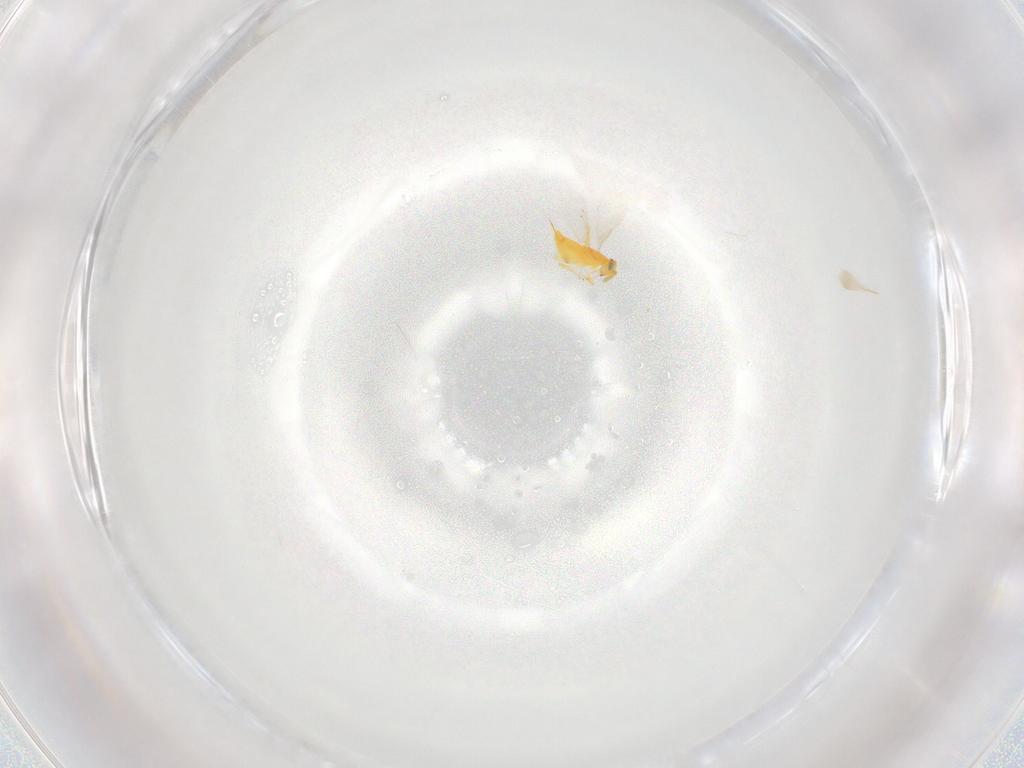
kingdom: Animalia
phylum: Arthropoda
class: Insecta
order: Hymenoptera
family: Aphelinidae
